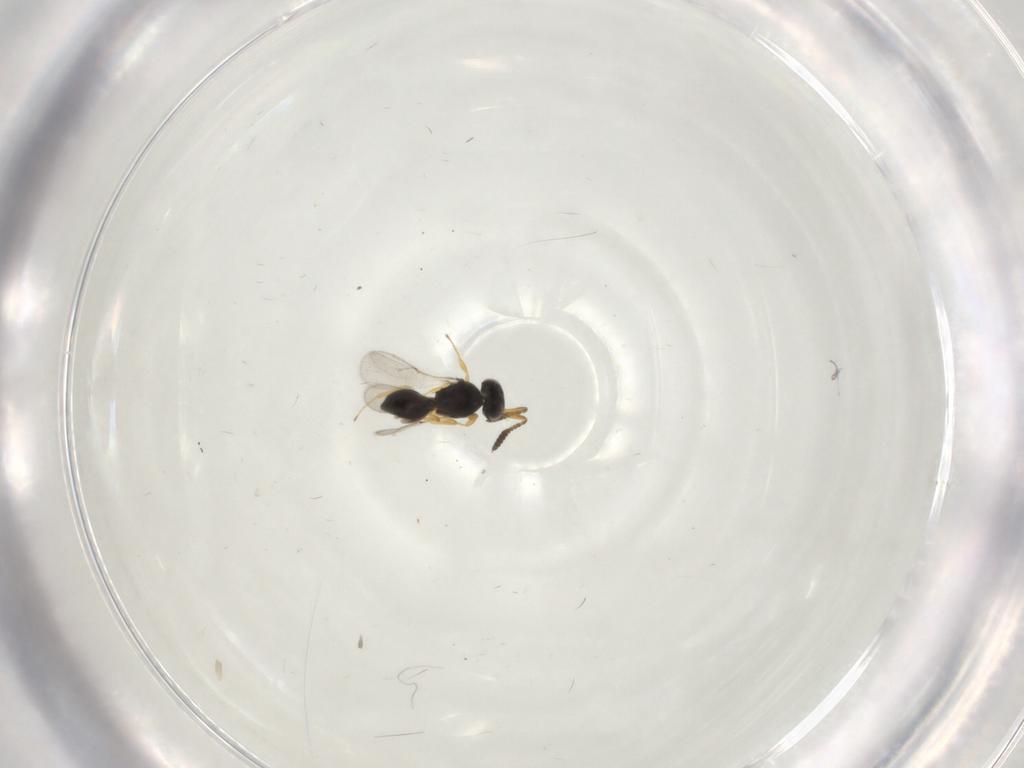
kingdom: Animalia
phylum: Arthropoda
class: Insecta
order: Hymenoptera
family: Scelionidae
